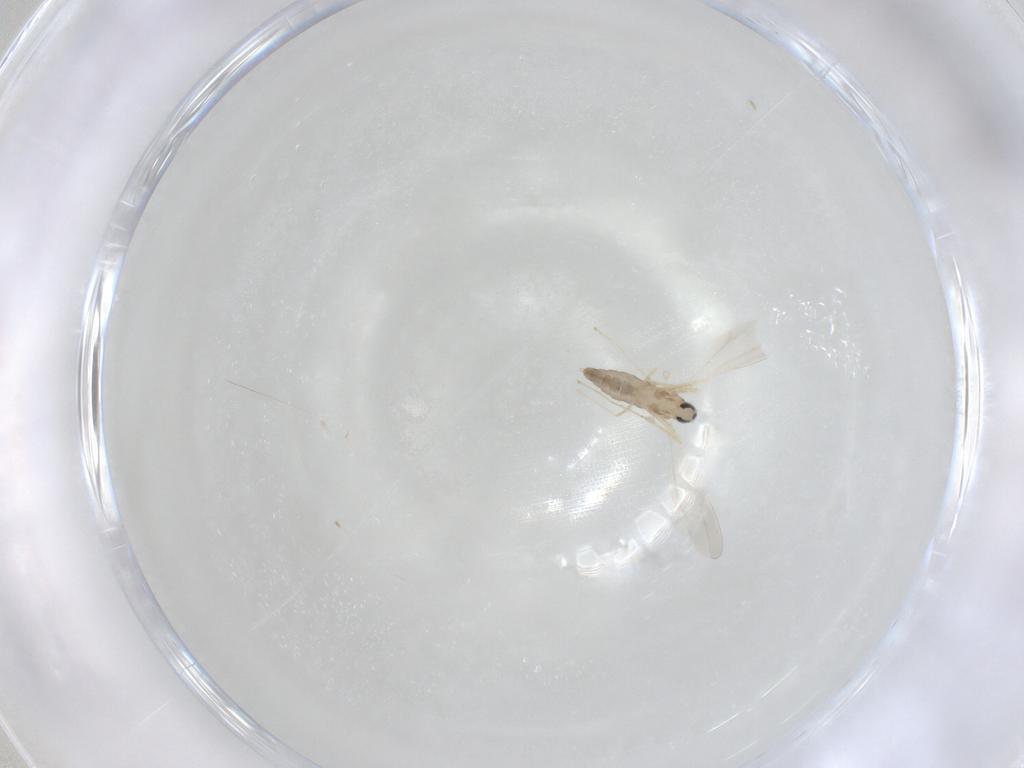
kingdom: Animalia
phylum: Arthropoda
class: Insecta
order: Diptera
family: Cecidomyiidae
